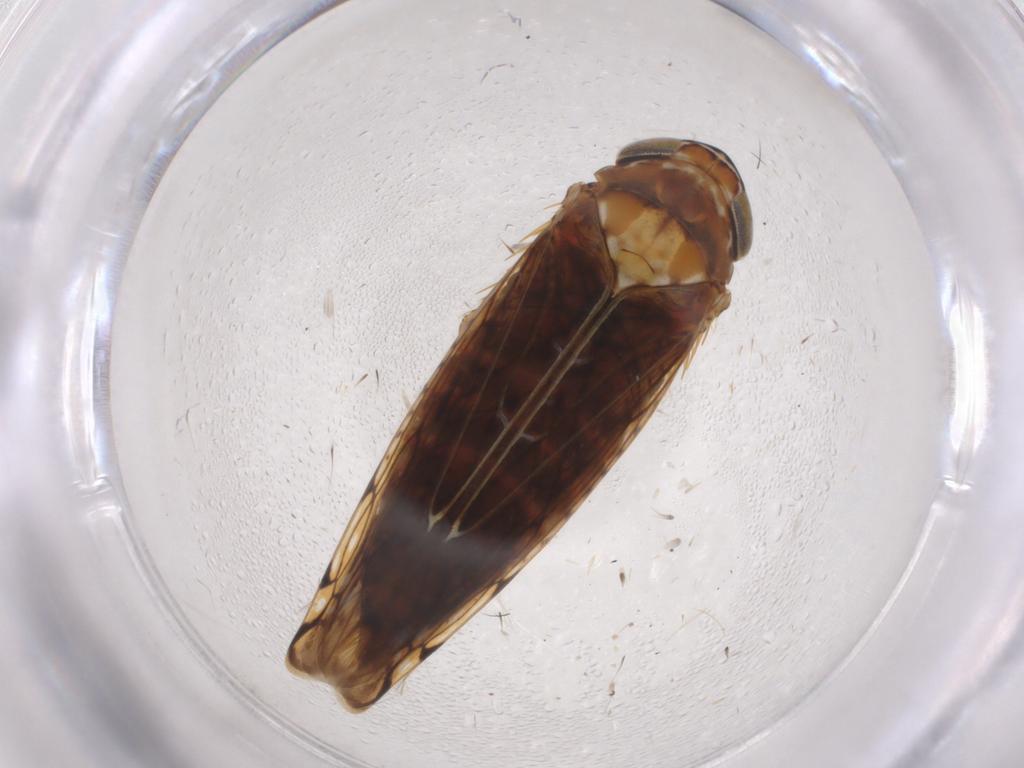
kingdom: Animalia
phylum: Arthropoda
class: Insecta
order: Hemiptera
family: Cicadellidae
